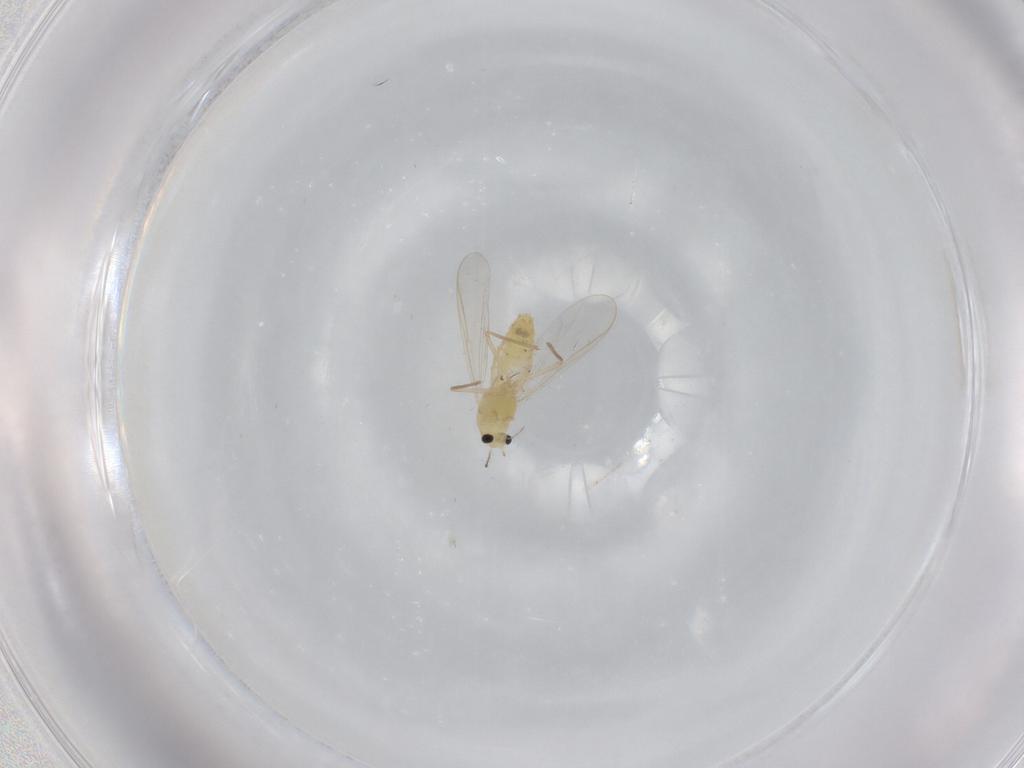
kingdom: Animalia
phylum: Arthropoda
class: Insecta
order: Diptera
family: Chironomidae
